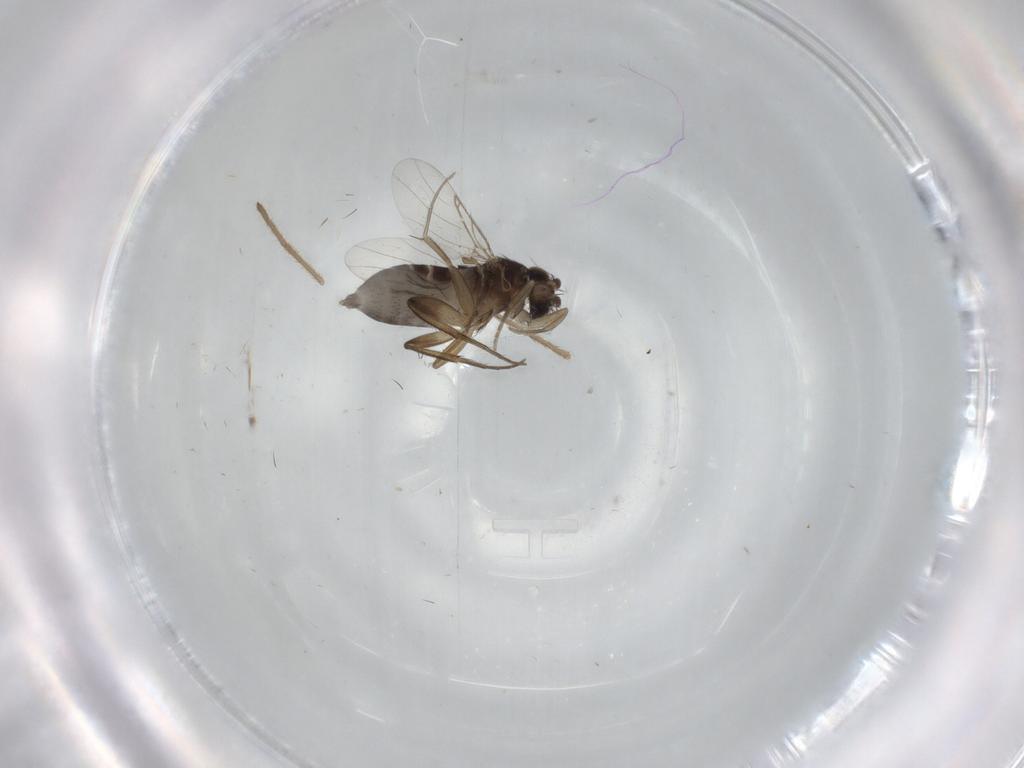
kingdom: Animalia
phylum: Arthropoda
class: Insecta
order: Diptera
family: Phoridae
